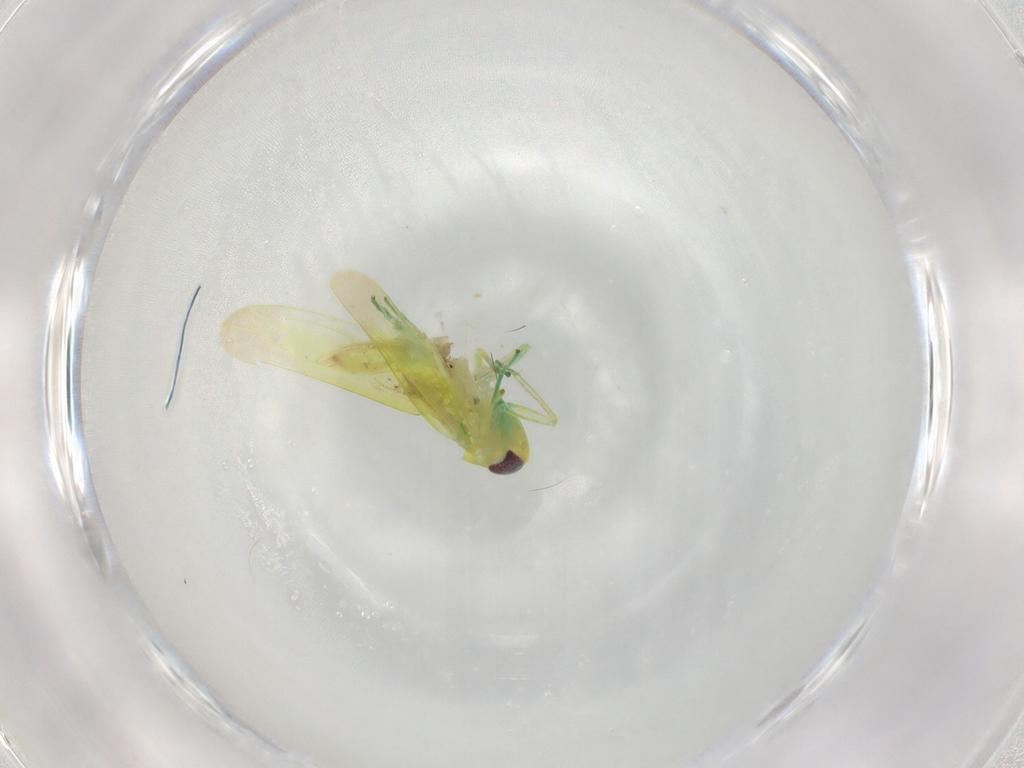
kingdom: Animalia
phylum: Arthropoda
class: Insecta
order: Hemiptera
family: Cicadellidae
